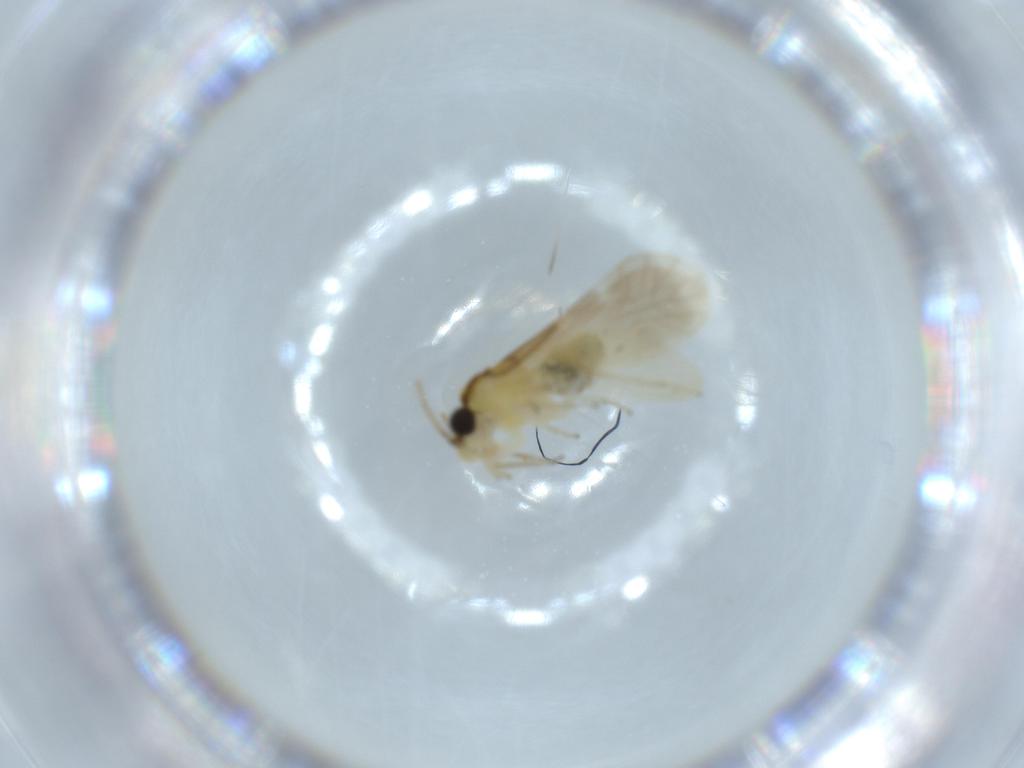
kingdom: Animalia
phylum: Arthropoda
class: Insecta
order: Psocodea
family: Caeciliusidae
